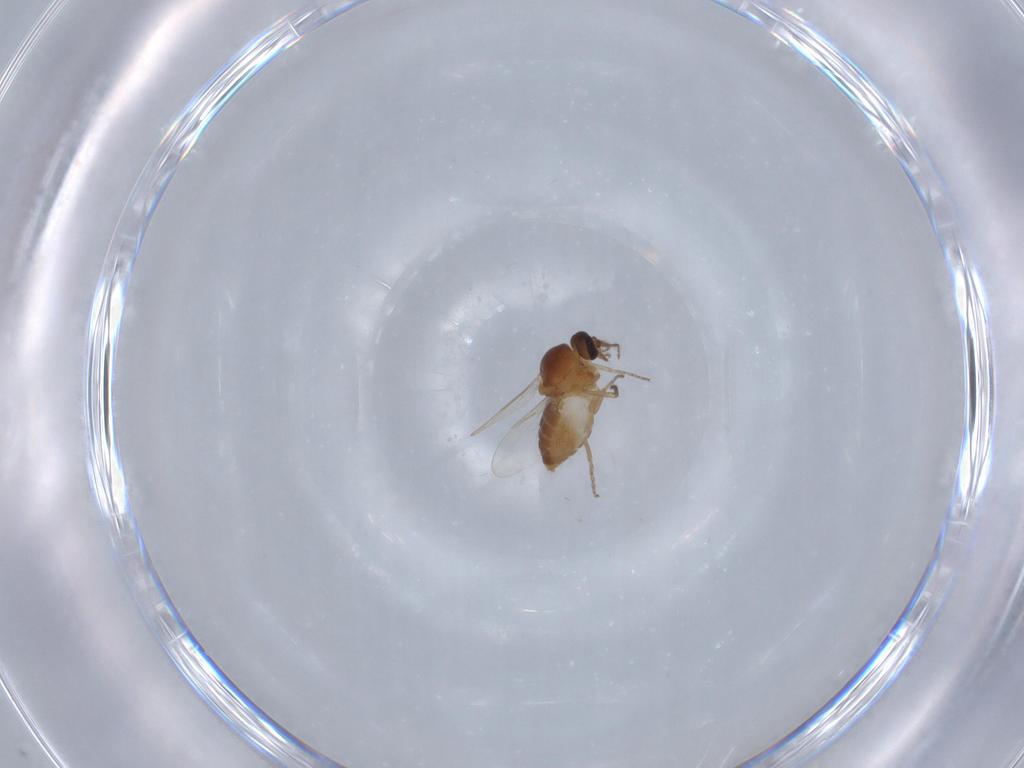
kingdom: Animalia
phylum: Arthropoda
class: Insecta
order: Diptera
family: Ceratopogonidae
